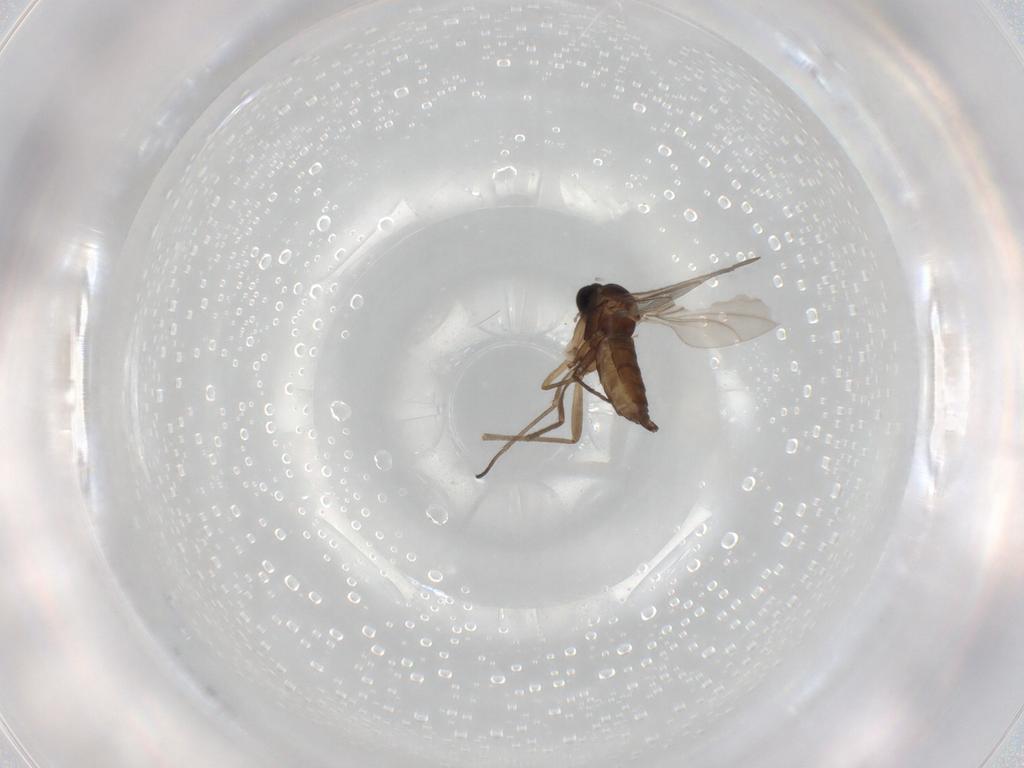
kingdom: Animalia
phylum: Arthropoda
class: Insecta
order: Diptera
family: Sciaridae
